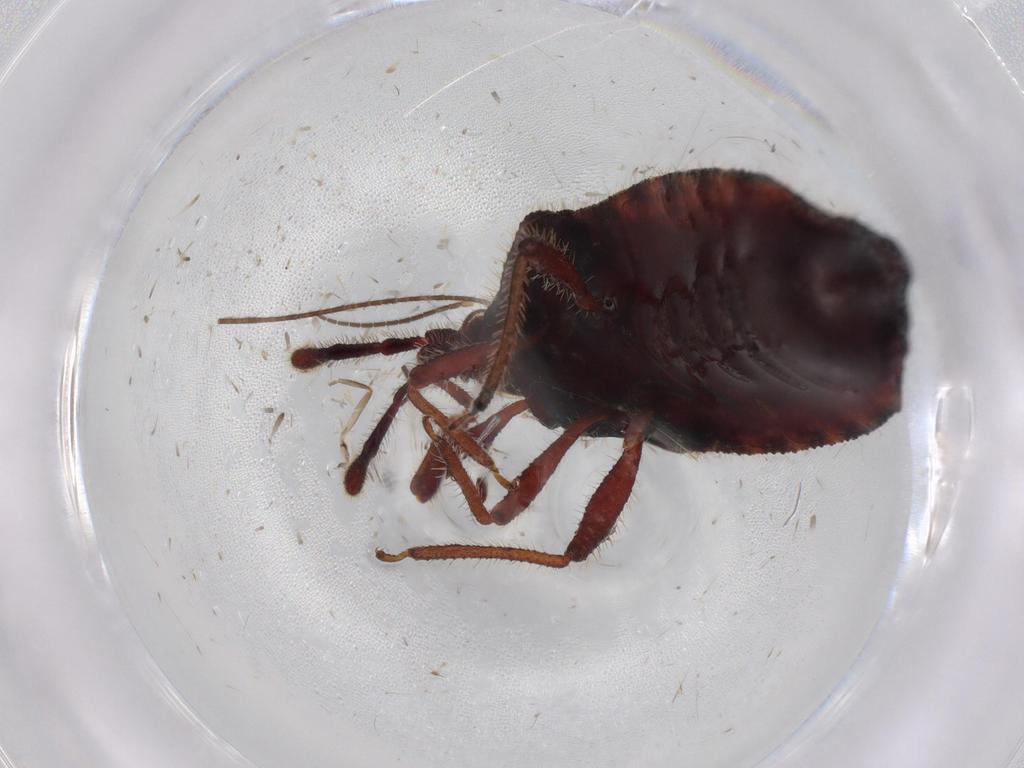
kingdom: Animalia
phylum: Arthropoda
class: Insecta
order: Hemiptera
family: Aradidae
